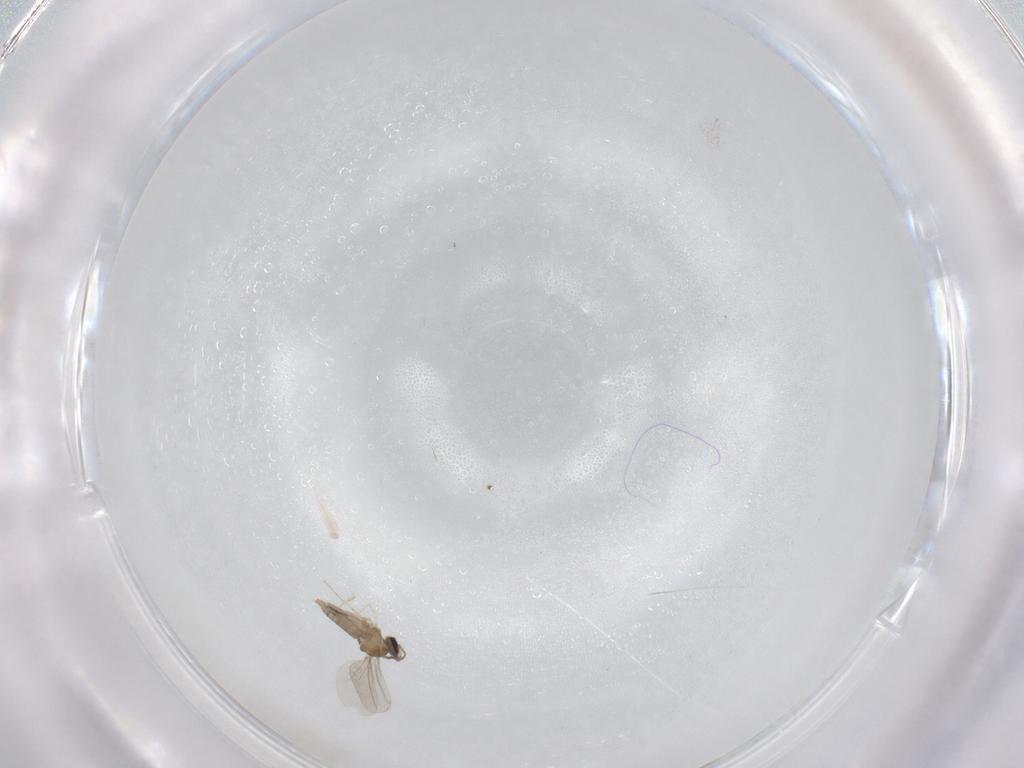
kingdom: Animalia
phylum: Arthropoda
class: Insecta
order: Diptera
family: Cecidomyiidae
